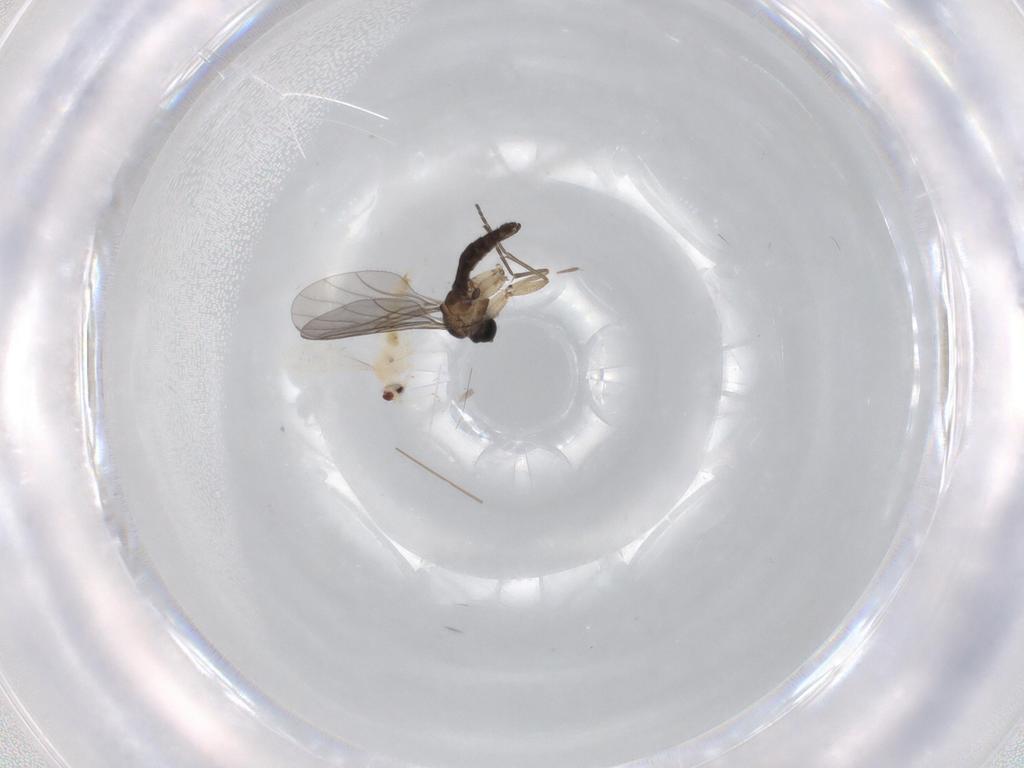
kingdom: Animalia
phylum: Arthropoda
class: Insecta
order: Diptera
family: Sciaridae
